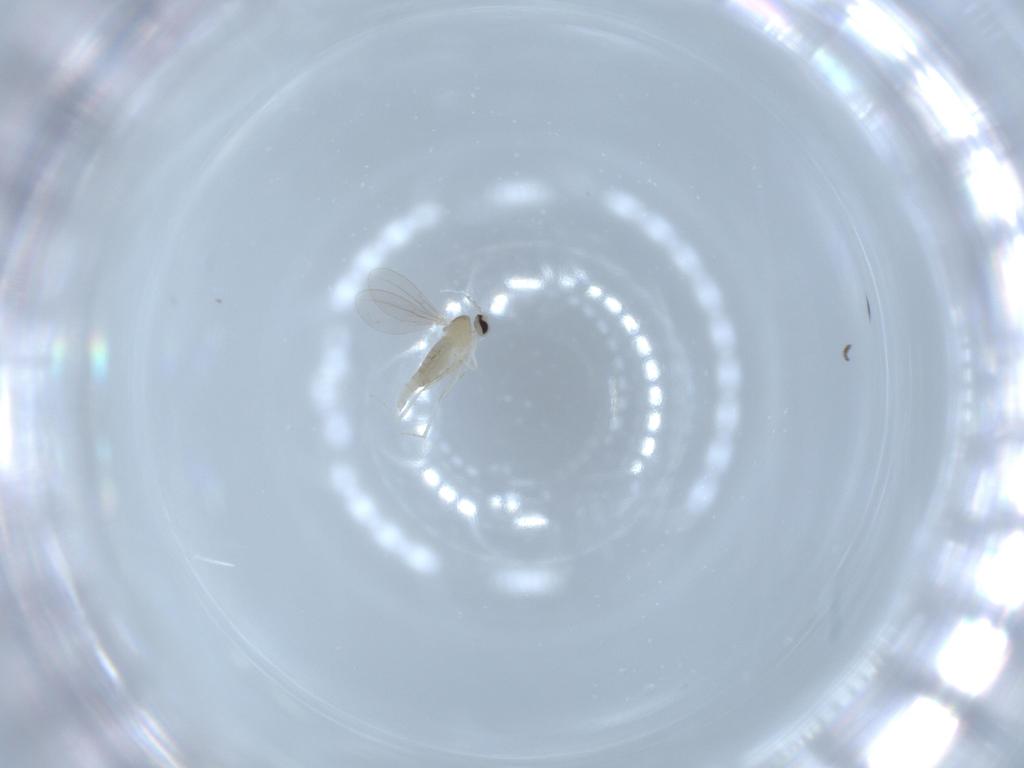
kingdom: Animalia
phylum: Arthropoda
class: Insecta
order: Diptera
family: Cecidomyiidae
